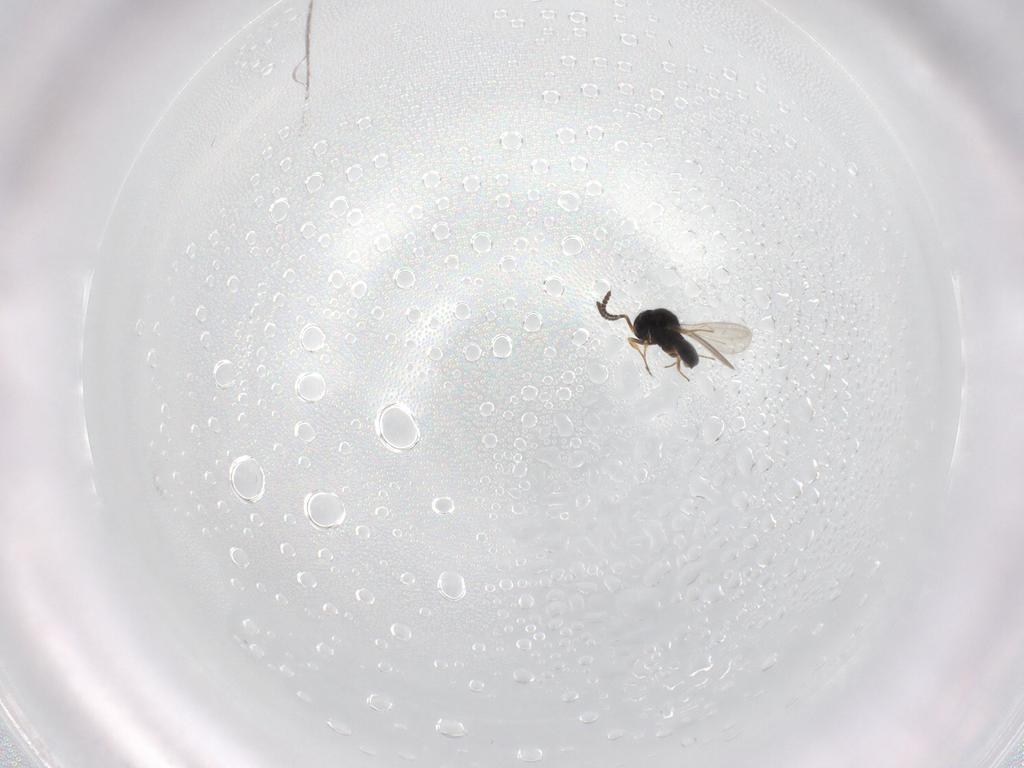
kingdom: Animalia
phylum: Arthropoda
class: Insecta
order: Hymenoptera
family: Scelionidae
